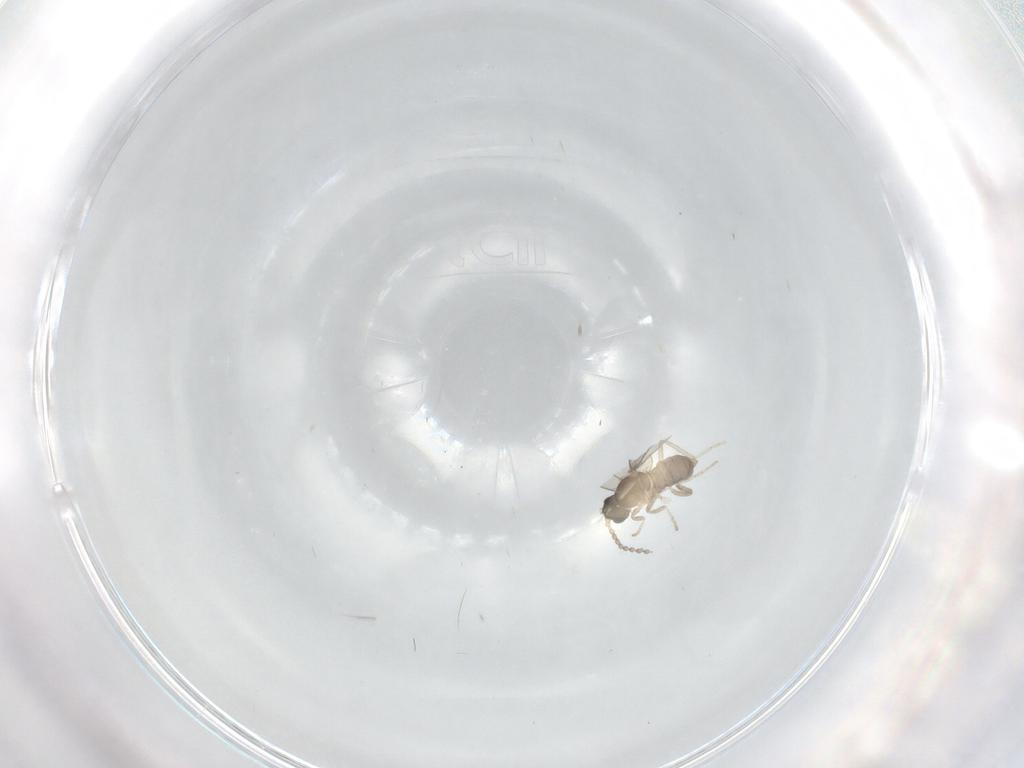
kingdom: Animalia
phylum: Arthropoda
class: Insecta
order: Diptera
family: Cecidomyiidae
